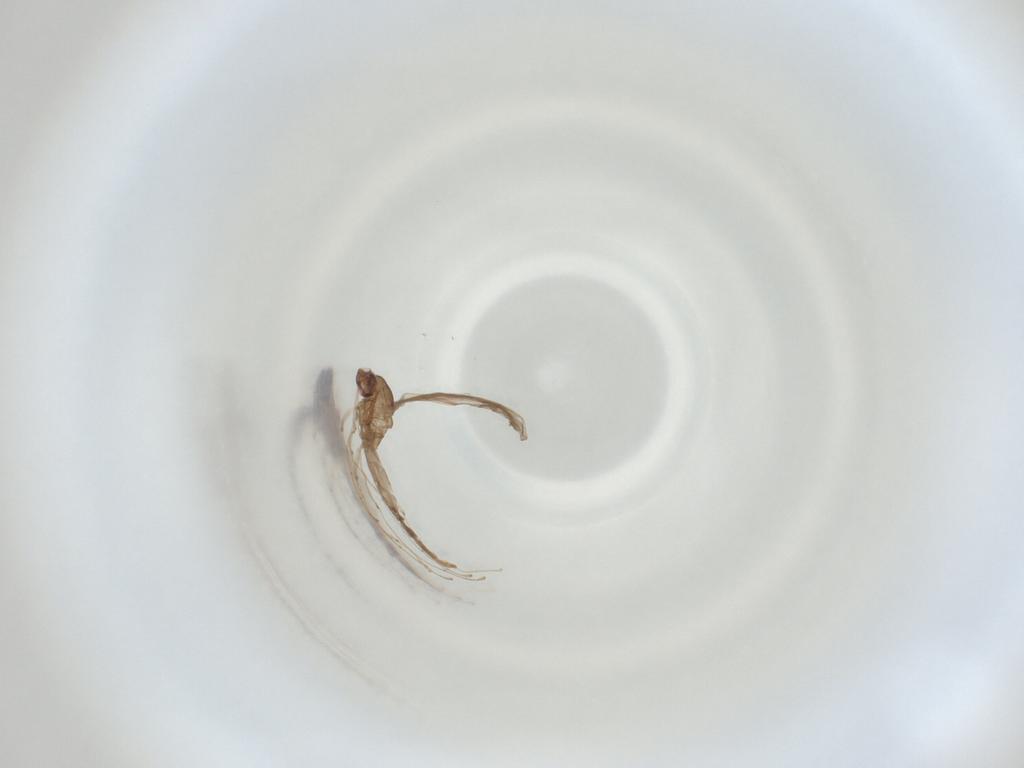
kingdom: Animalia
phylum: Arthropoda
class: Insecta
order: Diptera
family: Cecidomyiidae
